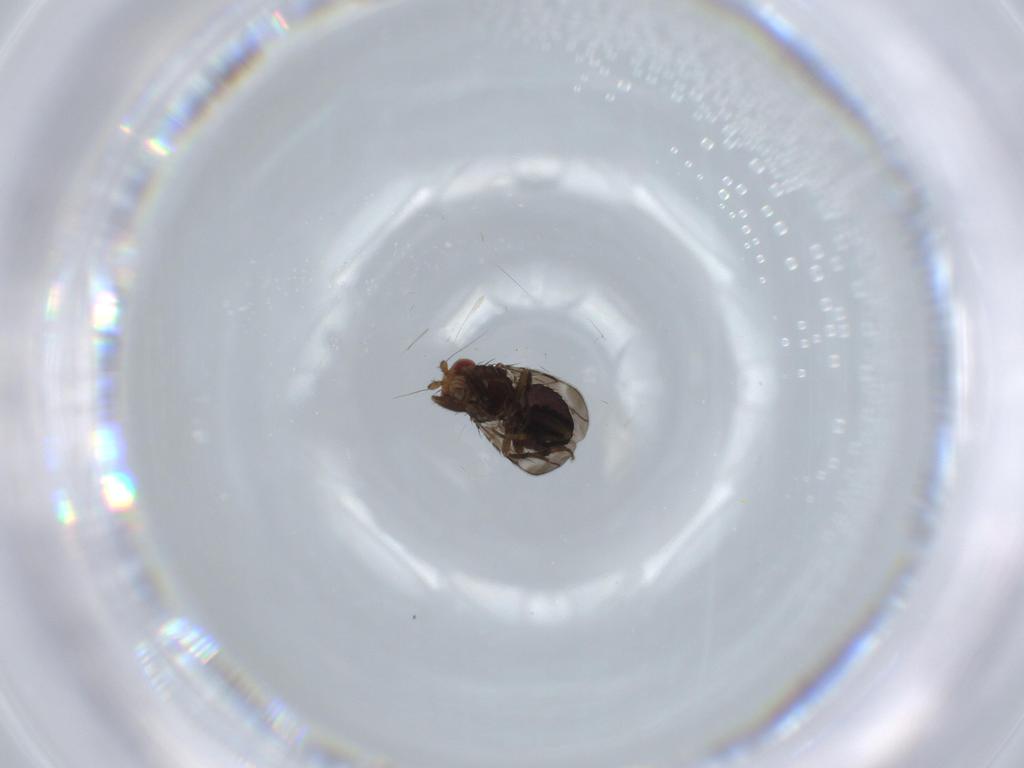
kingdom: Animalia
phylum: Arthropoda
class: Insecta
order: Diptera
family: Sphaeroceridae
